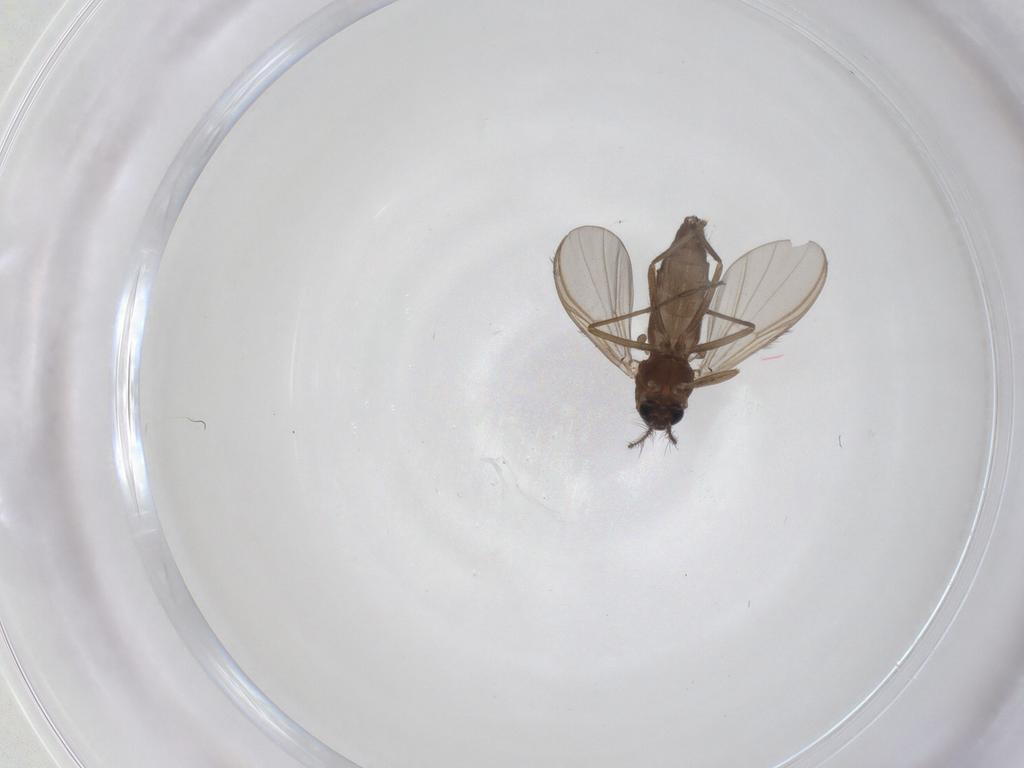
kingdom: Animalia
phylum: Arthropoda
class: Insecta
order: Diptera
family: Chironomidae
